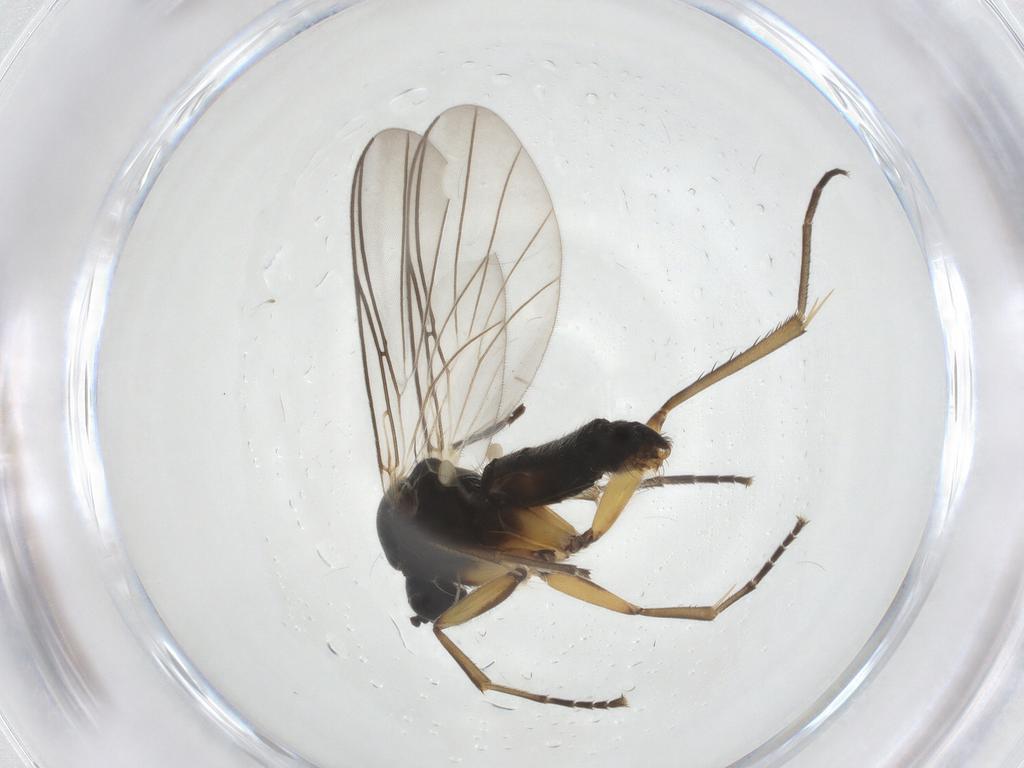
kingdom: Animalia
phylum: Arthropoda
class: Insecta
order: Diptera
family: Mycetophilidae
